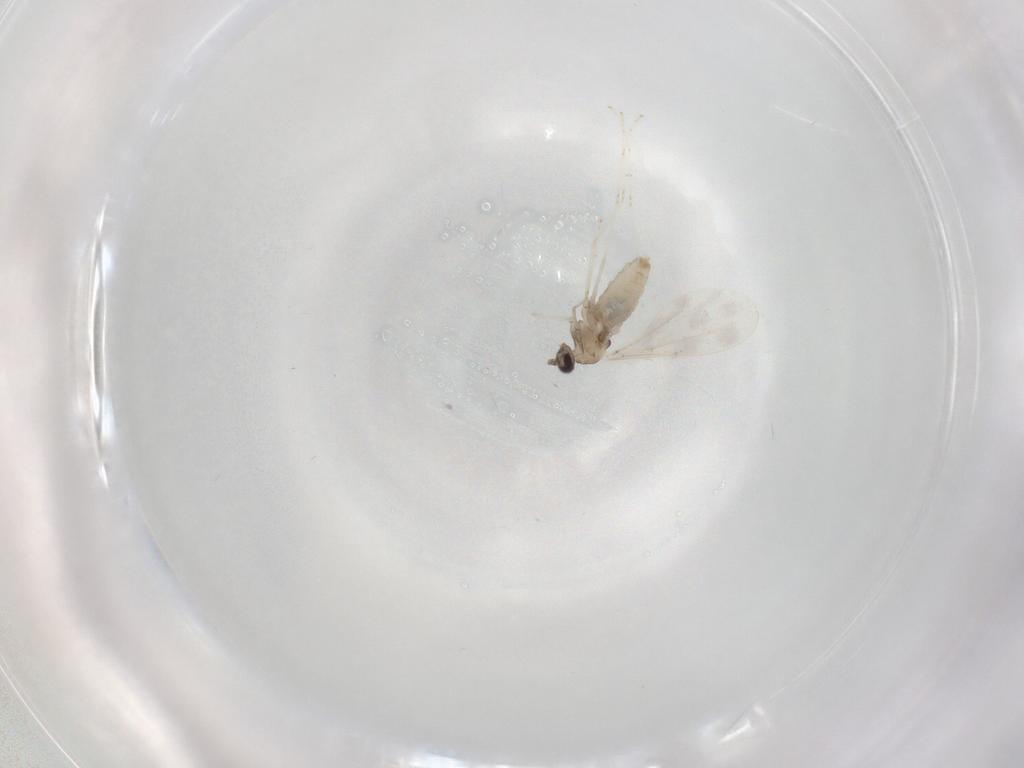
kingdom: Animalia
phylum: Arthropoda
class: Insecta
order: Diptera
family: Cecidomyiidae
